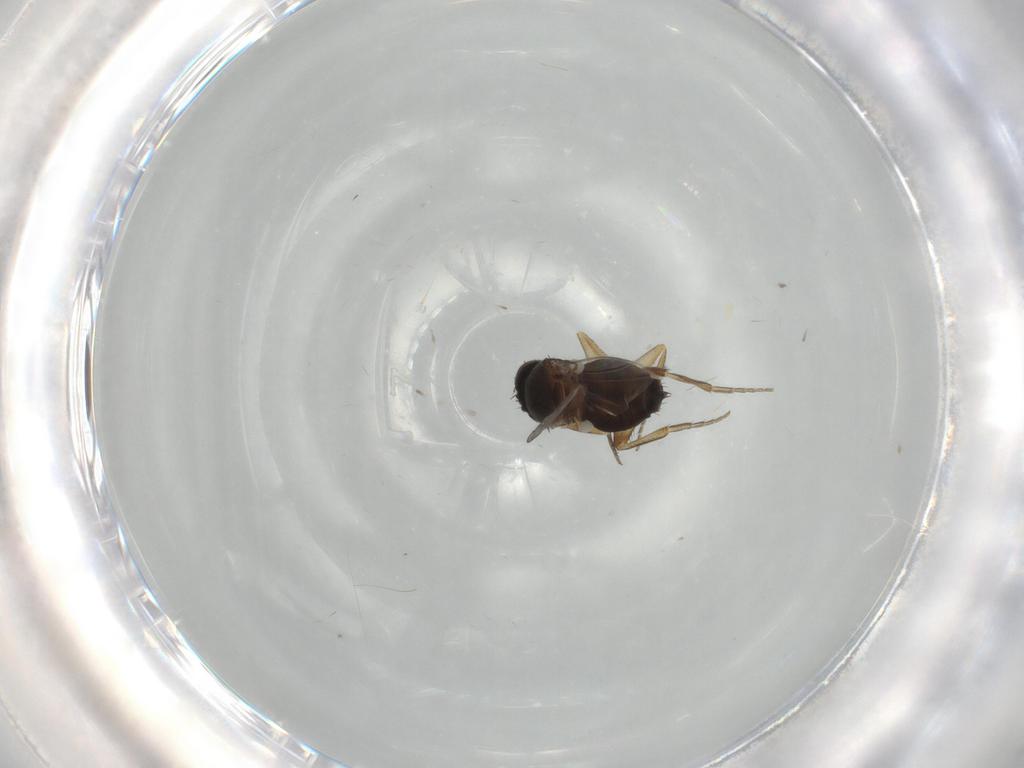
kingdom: Animalia
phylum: Arthropoda
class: Insecta
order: Diptera
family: Phoridae
